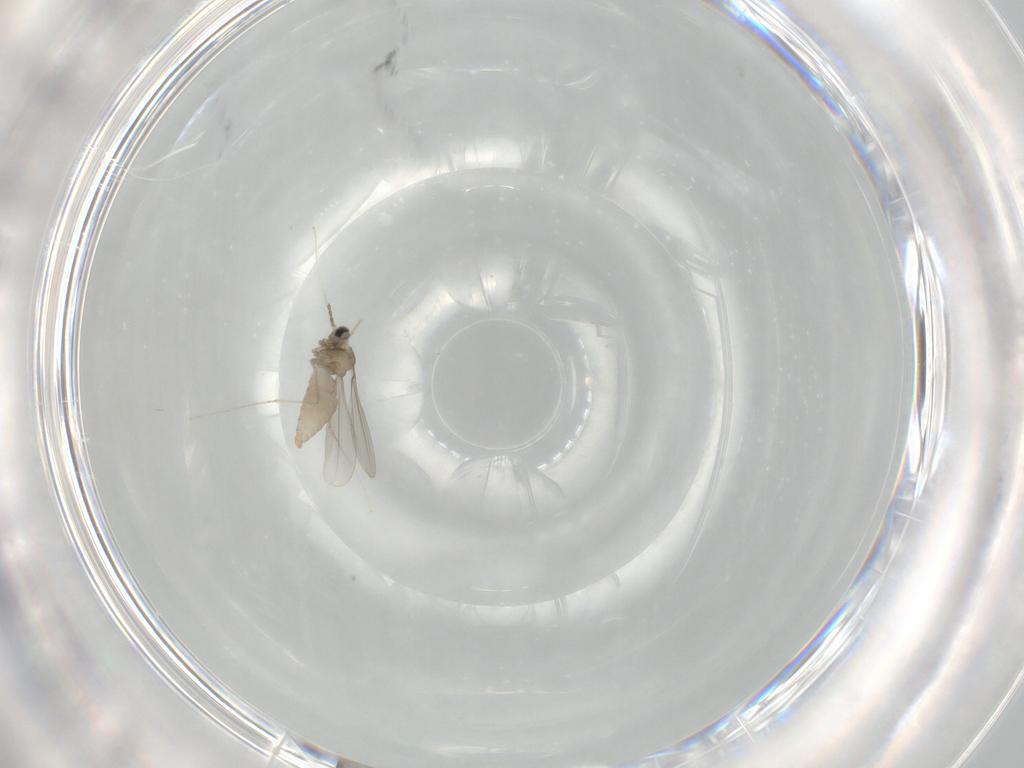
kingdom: Animalia
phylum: Arthropoda
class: Insecta
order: Diptera
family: Cecidomyiidae
